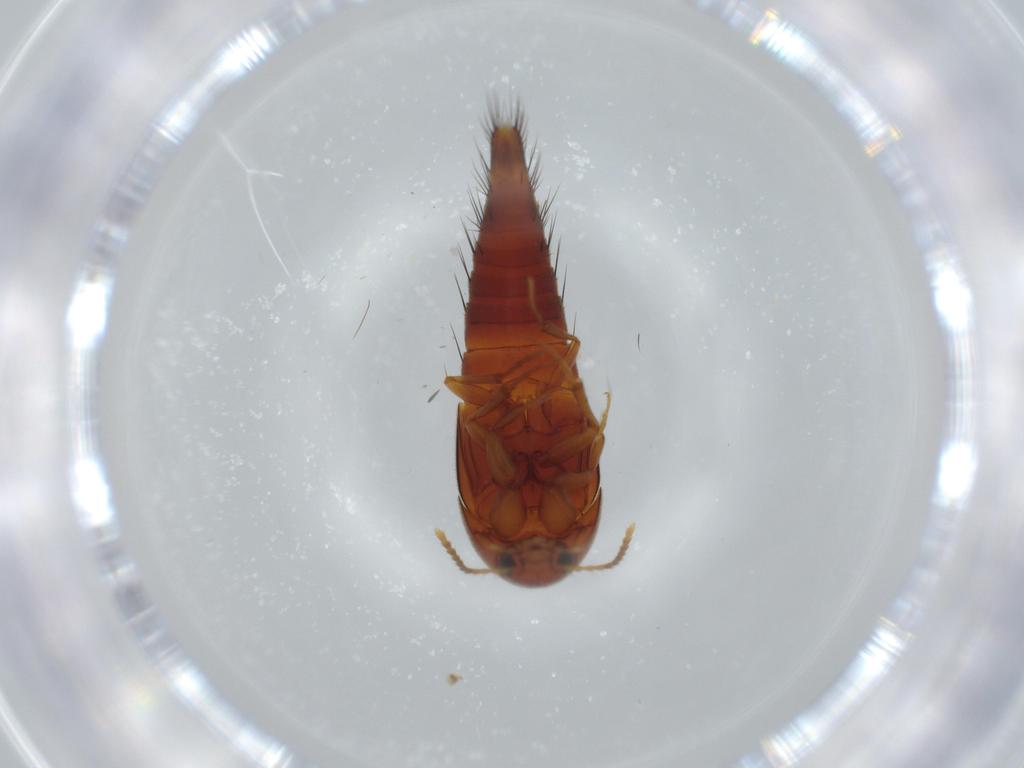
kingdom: Animalia
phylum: Arthropoda
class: Insecta
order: Coleoptera
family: Staphylinidae
